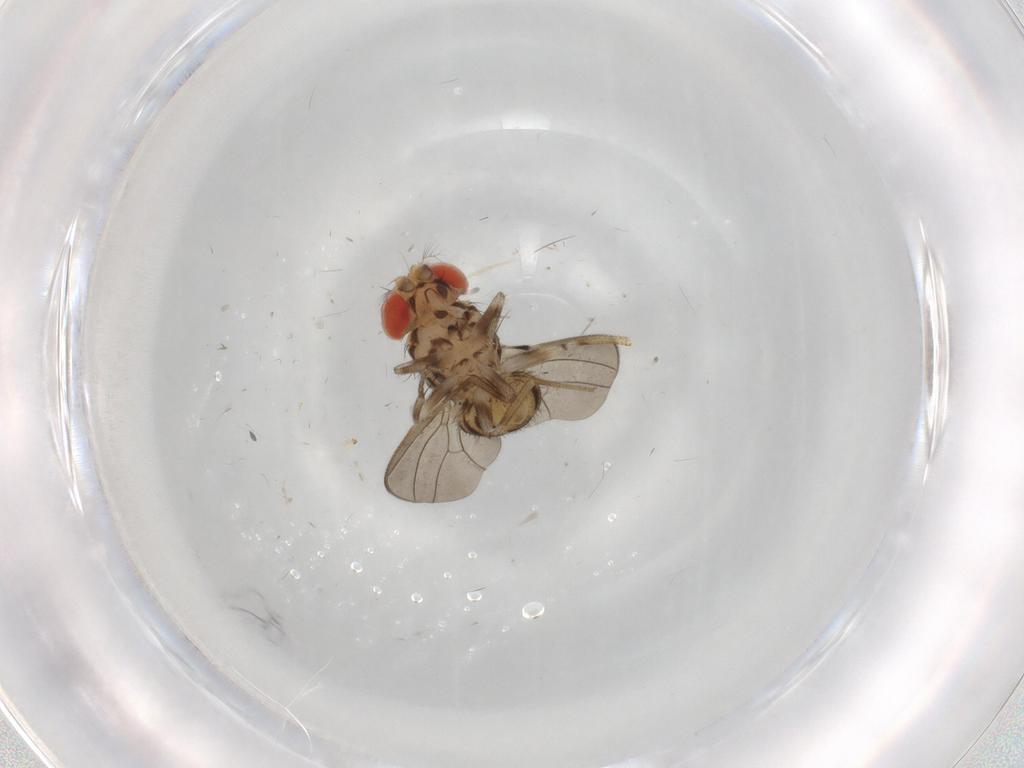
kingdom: Animalia
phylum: Arthropoda
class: Insecta
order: Diptera
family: Drosophilidae
